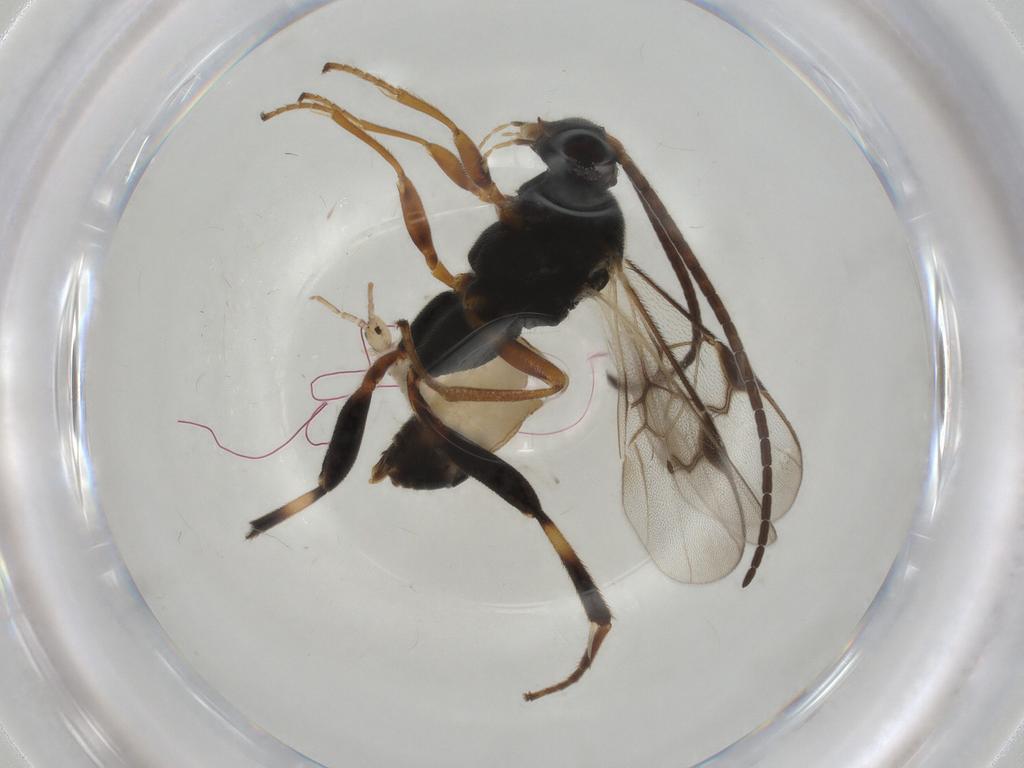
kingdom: Animalia
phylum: Arthropoda
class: Insecta
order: Hymenoptera
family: Braconidae
